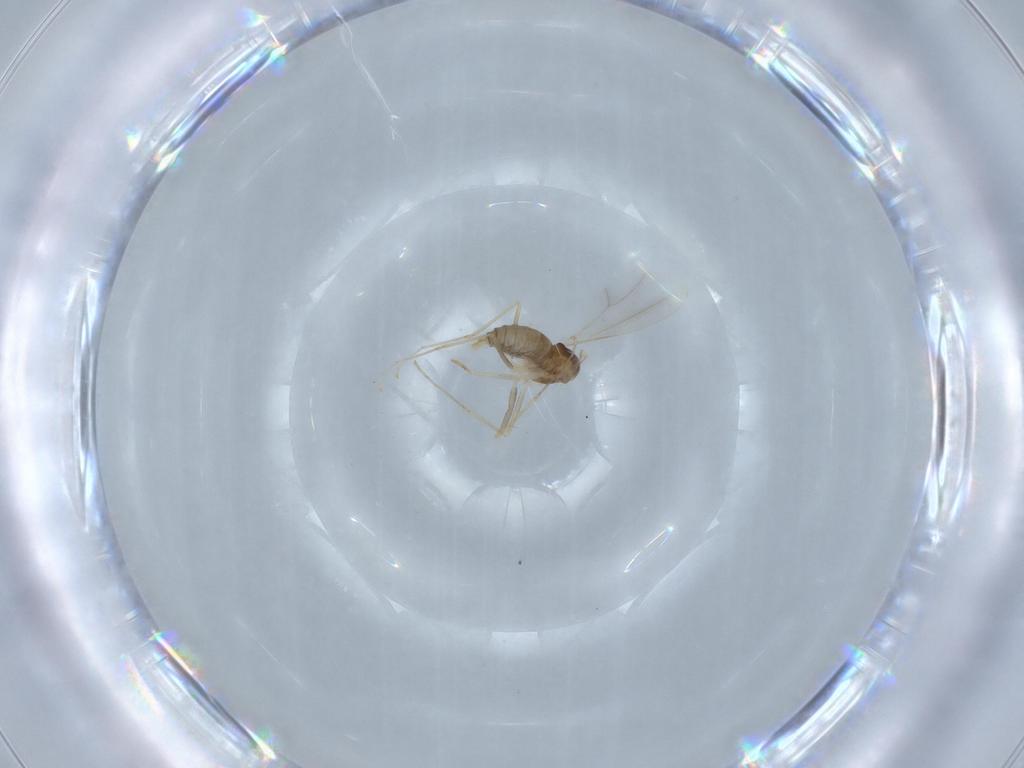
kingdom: Animalia
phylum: Arthropoda
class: Insecta
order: Diptera
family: Cecidomyiidae
